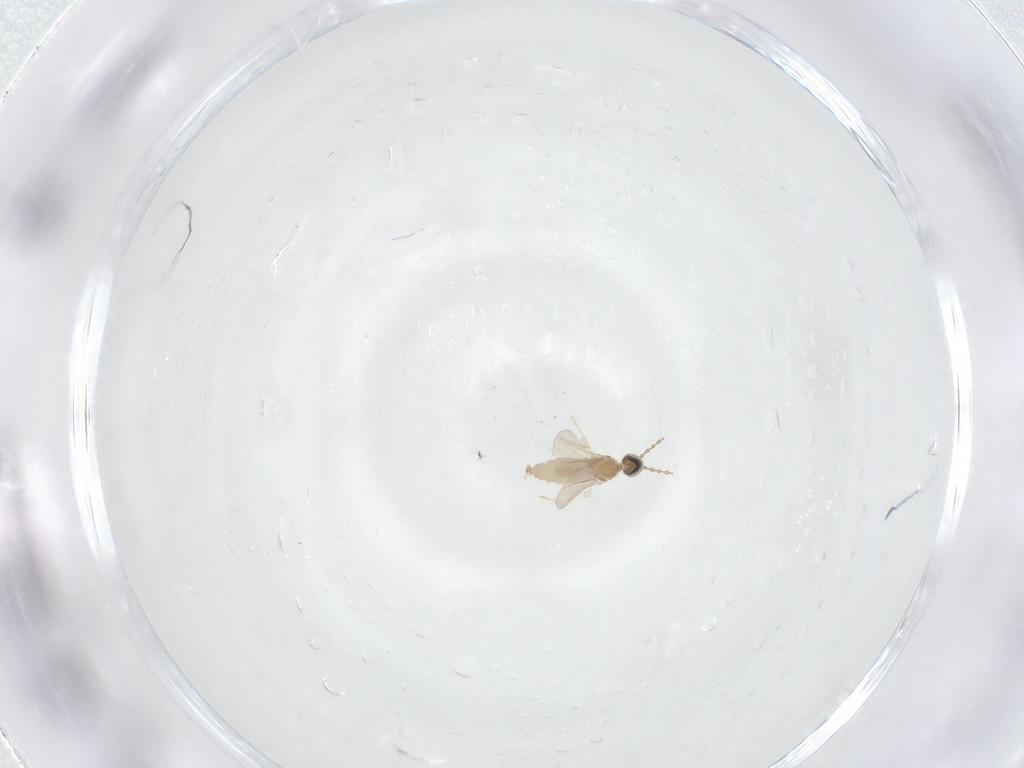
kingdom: Animalia
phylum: Arthropoda
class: Insecta
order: Diptera
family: Cecidomyiidae
